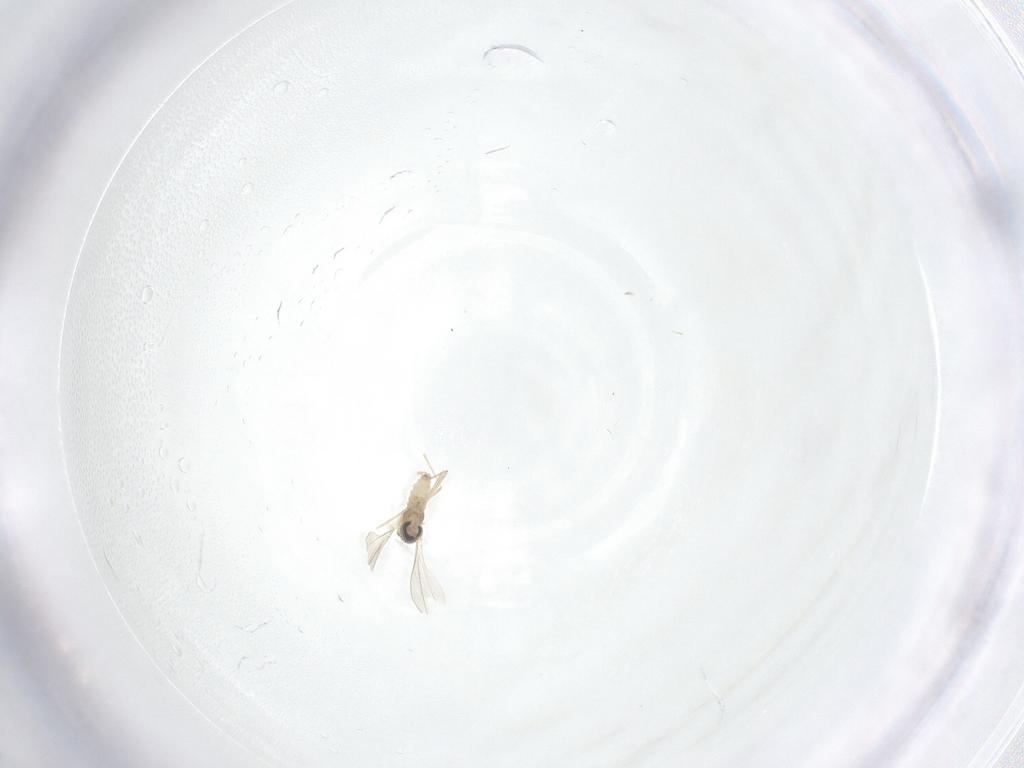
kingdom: Animalia
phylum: Arthropoda
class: Insecta
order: Diptera
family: Cecidomyiidae
